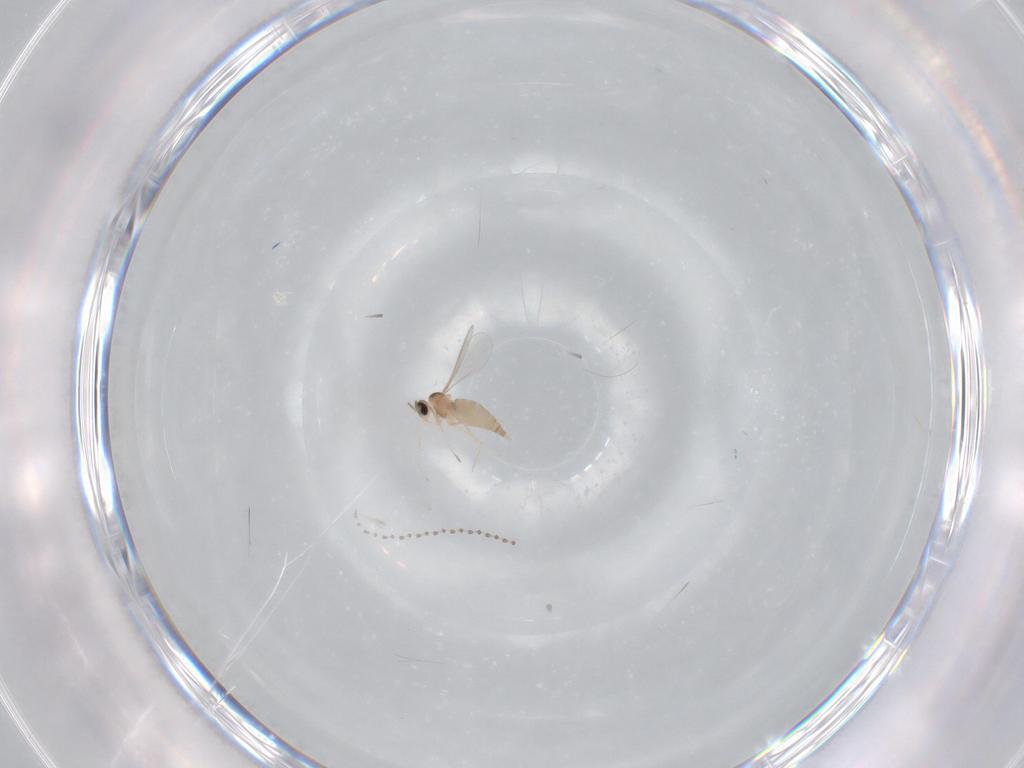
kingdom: Animalia
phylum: Arthropoda
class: Insecta
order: Diptera
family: Cecidomyiidae
